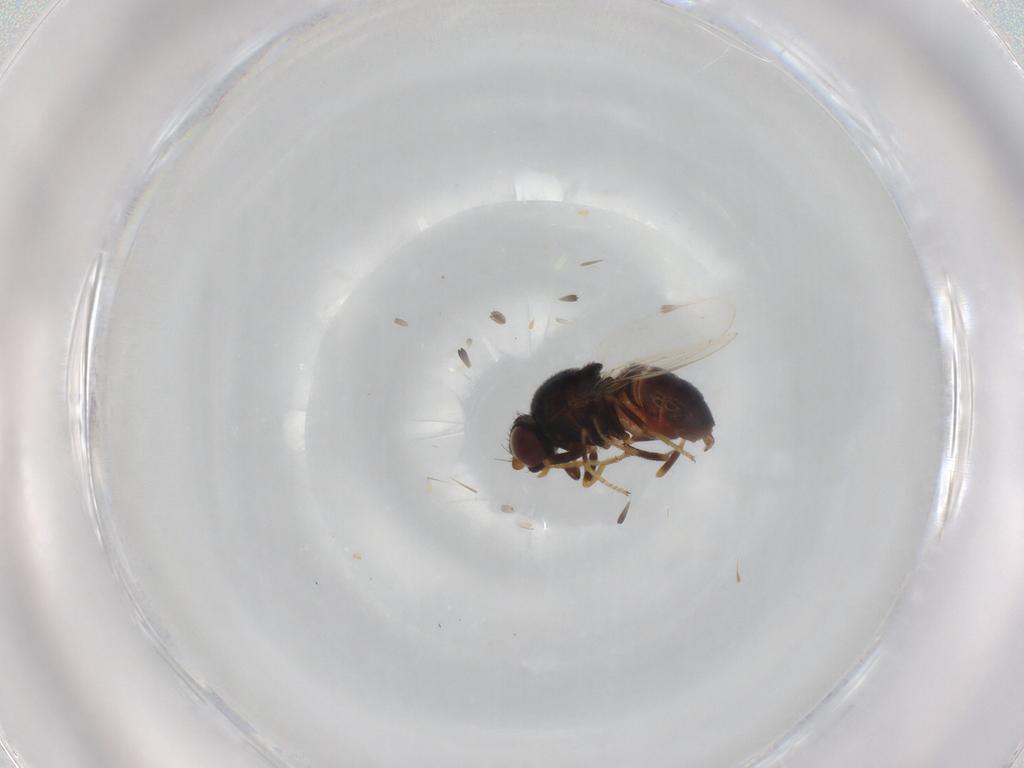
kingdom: Animalia
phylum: Arthropoda
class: Insecta
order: Diptera
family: Chloropidae
